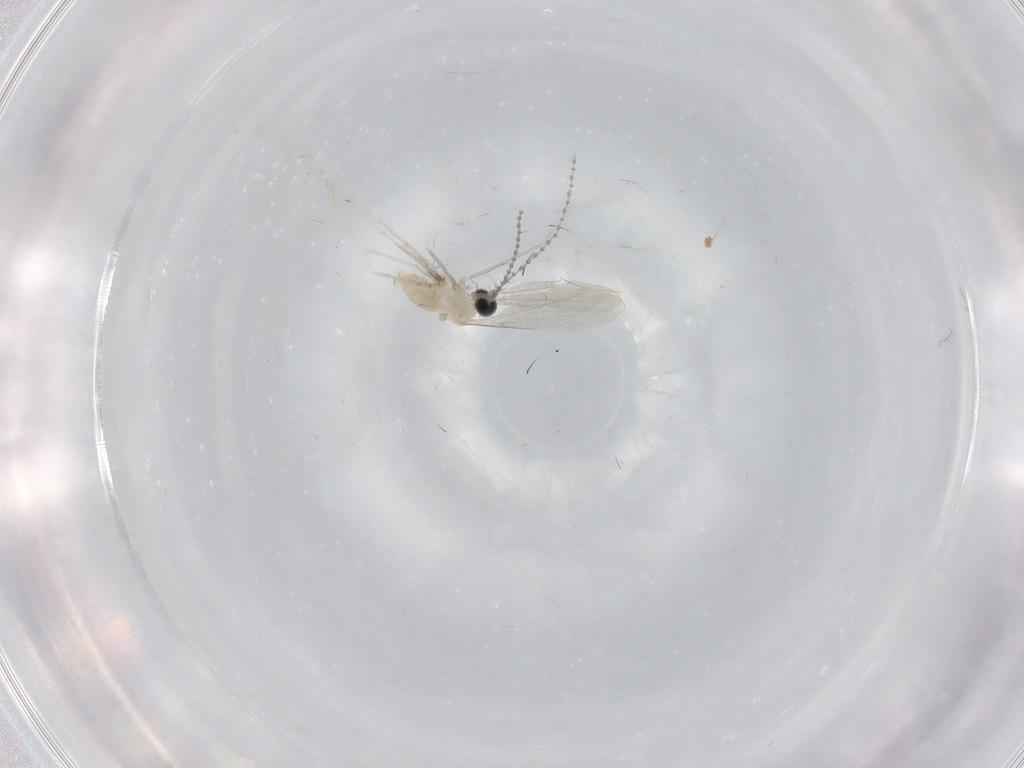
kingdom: Animalia
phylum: Arthropoda
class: Insecta
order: Diptera
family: Cecidomyiidae
